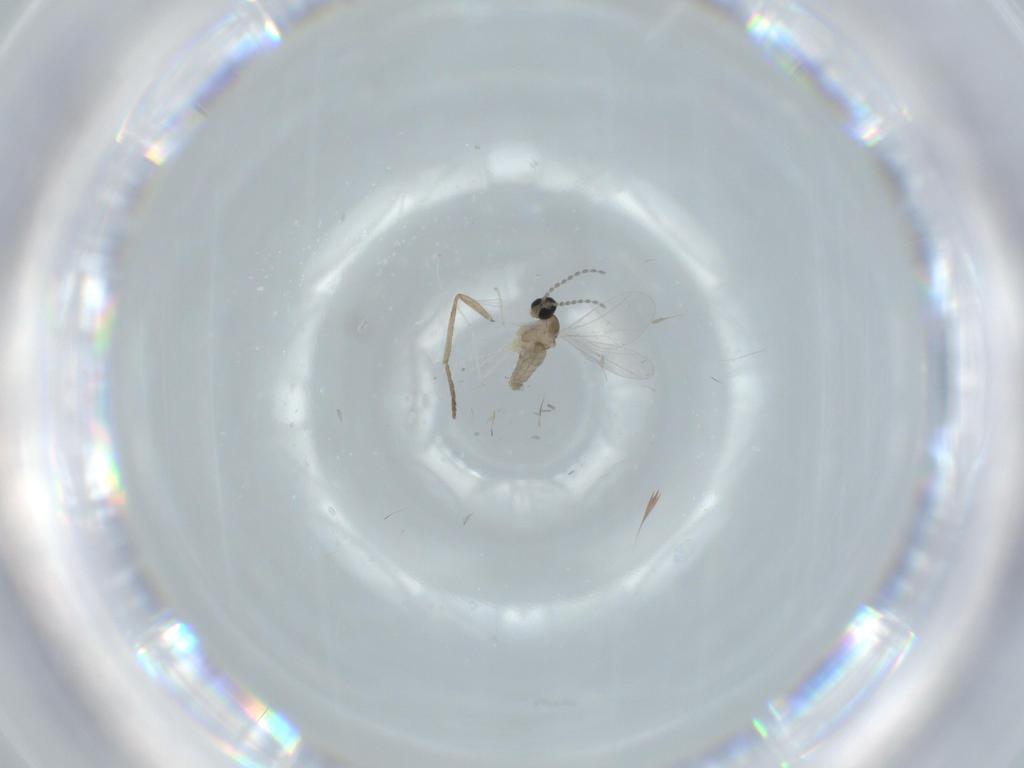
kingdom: Animalia
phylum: Arthropoda
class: Insecta
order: Diptera
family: Cecidomyiidae
